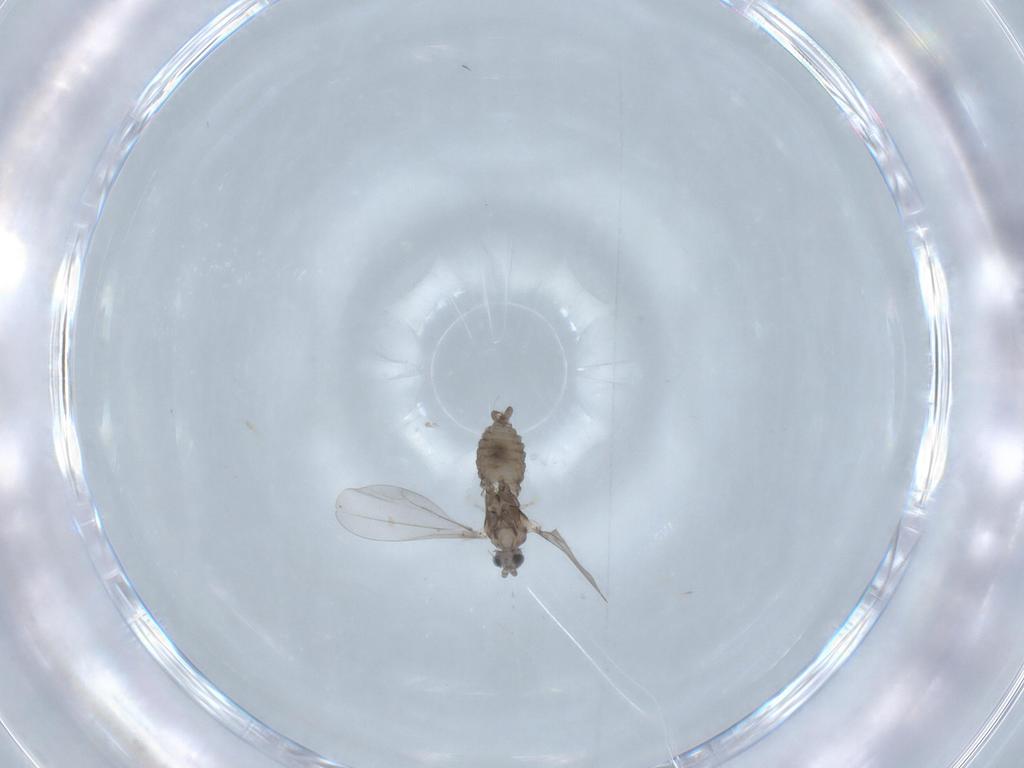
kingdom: Animalia
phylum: Arthropoda
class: Insecta
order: Diptera
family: Cecidomyiidae
